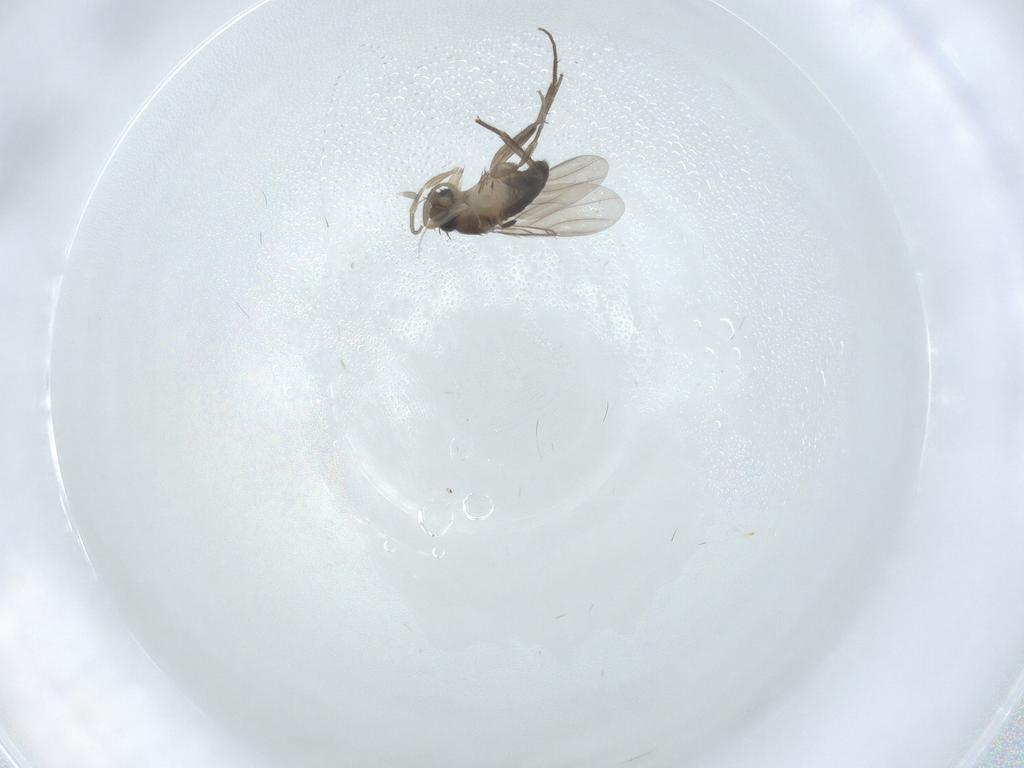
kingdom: Animalia
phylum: Arthropoda
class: Insecta
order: Diptera
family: Phoridae
